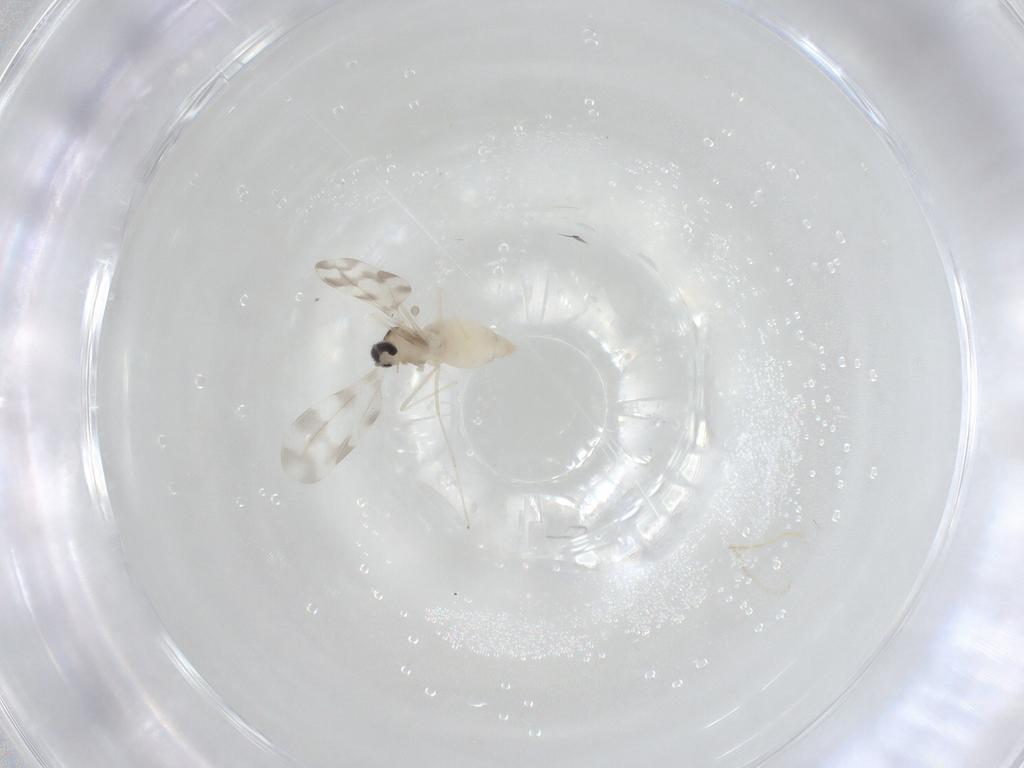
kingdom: Animalia
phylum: Arthropoda
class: Insecta
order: Diptera
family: Cecidomyiidae
